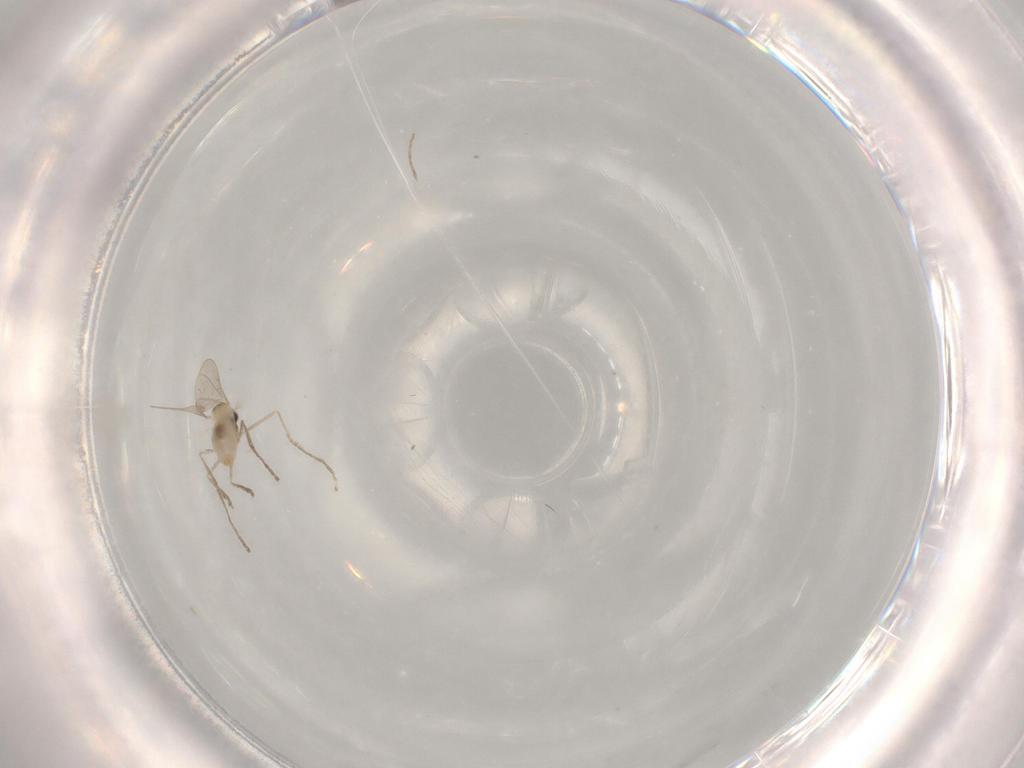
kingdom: Animalia
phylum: Arthropoda
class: Insecta
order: Diptera
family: Cecidomyiidae
